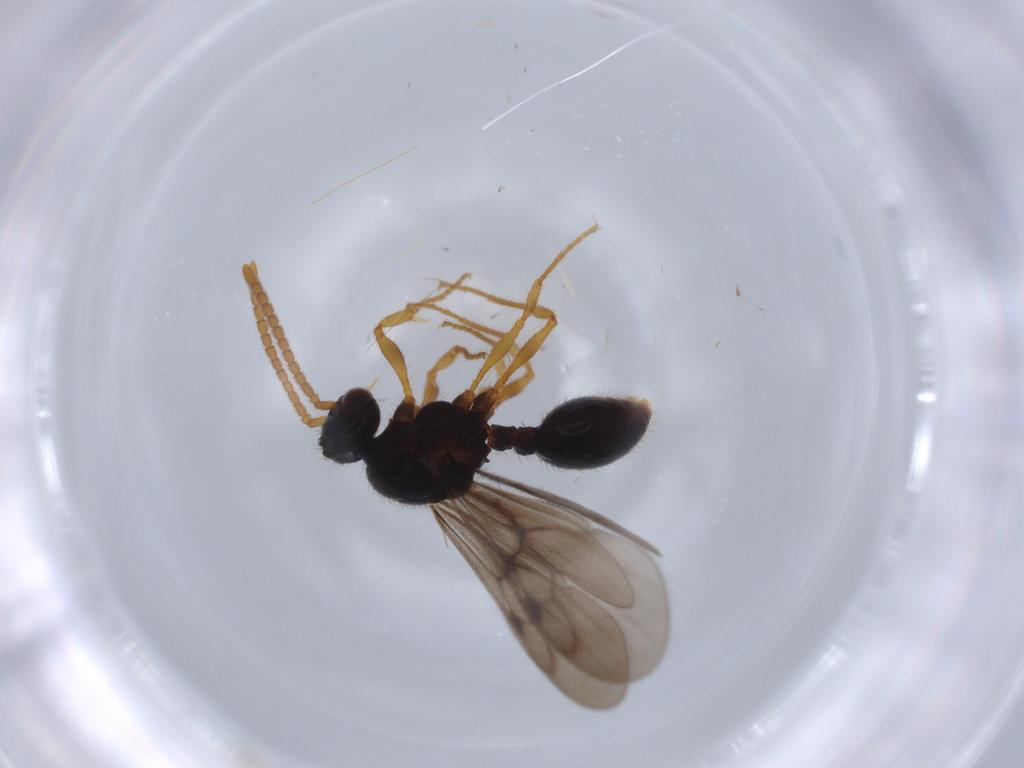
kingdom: Animalia
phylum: Arthropoda
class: Insecta
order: Hymenoptera
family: Formicidae
